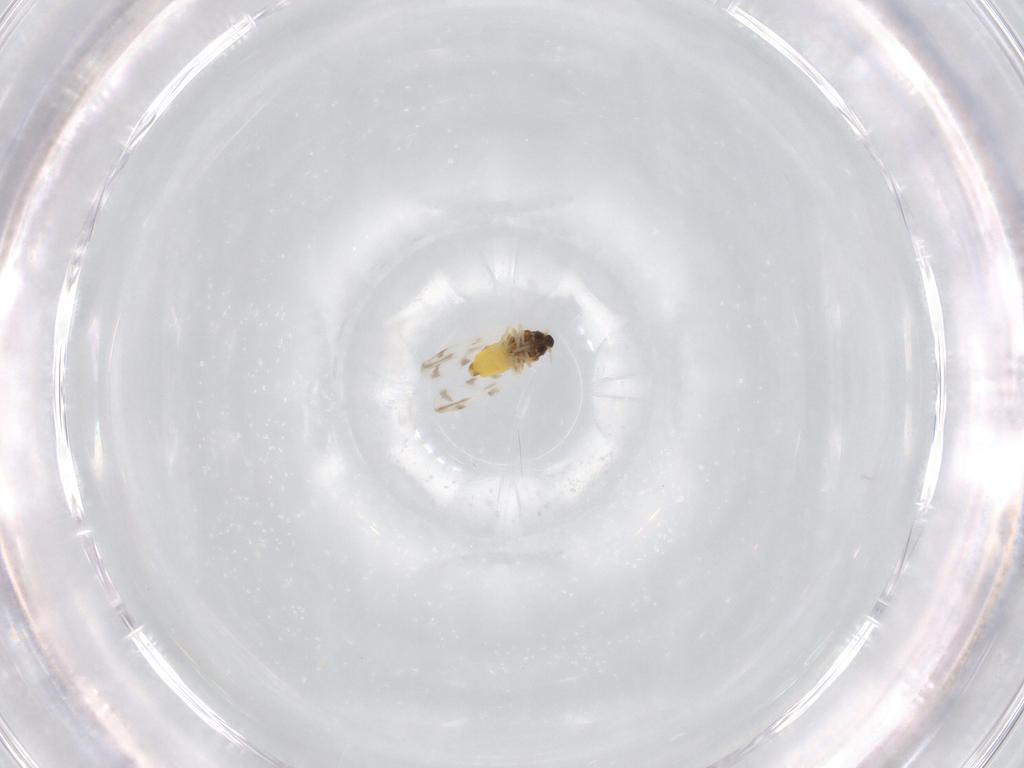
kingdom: Animalia
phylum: Arthropoda
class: Insecta
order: Hemiptera
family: Aleyrodidae
